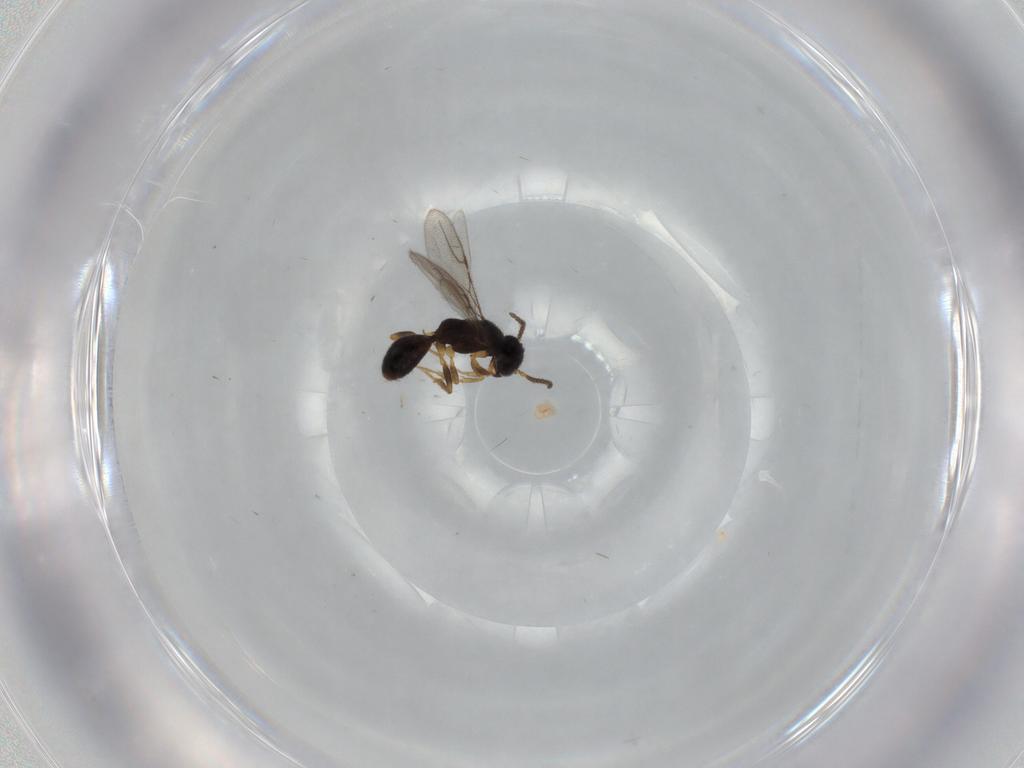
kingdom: Animalia
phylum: Arthropoda
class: Insecta
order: Hymenoptera
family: Bethylidae
